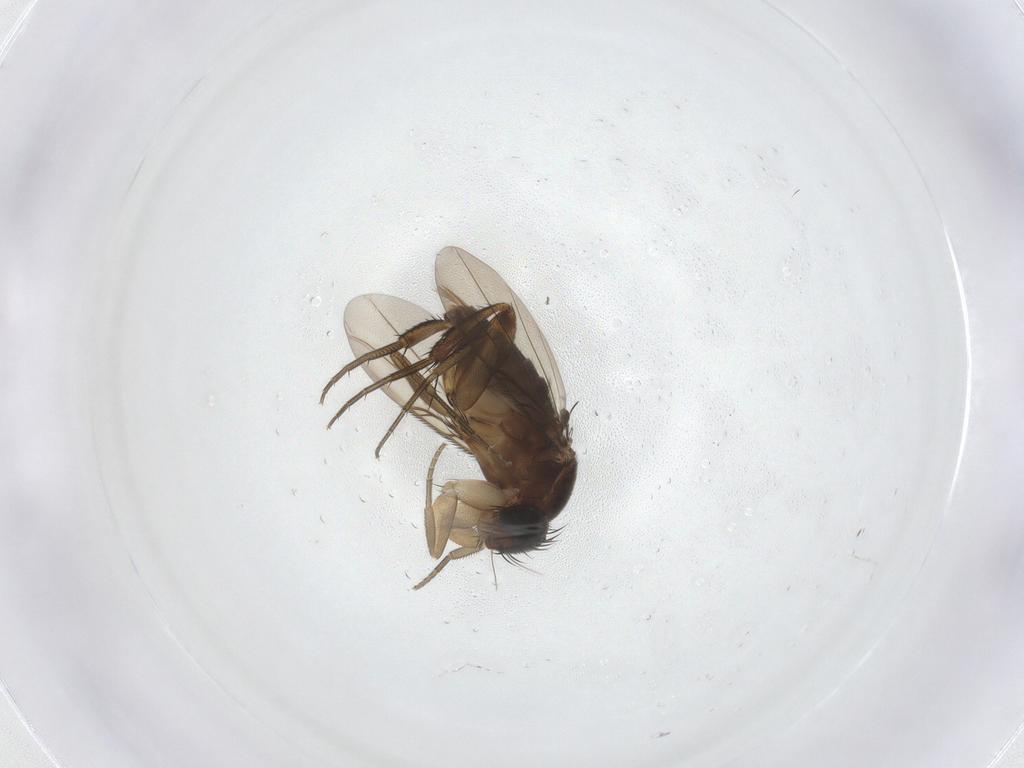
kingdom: Animalia
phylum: Arthropoda
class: Insecta
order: Diptera
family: Phoridae
